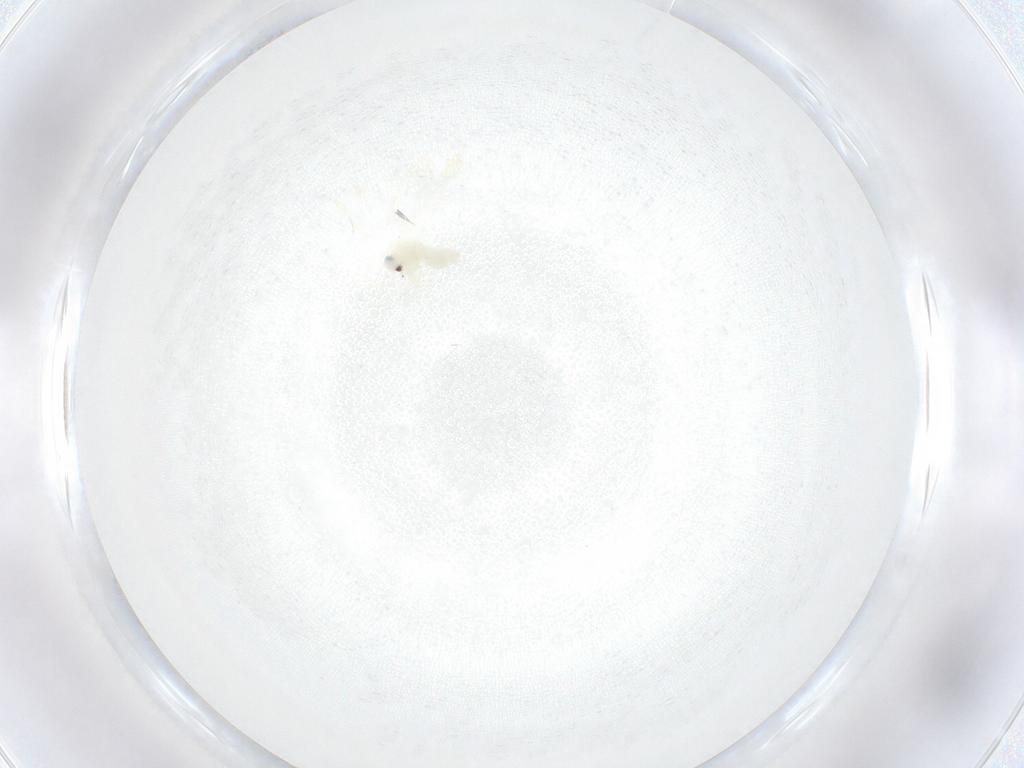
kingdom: Animalia
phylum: Arthropoda
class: Insecta
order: Hemiptera
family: Aleyrodidae
